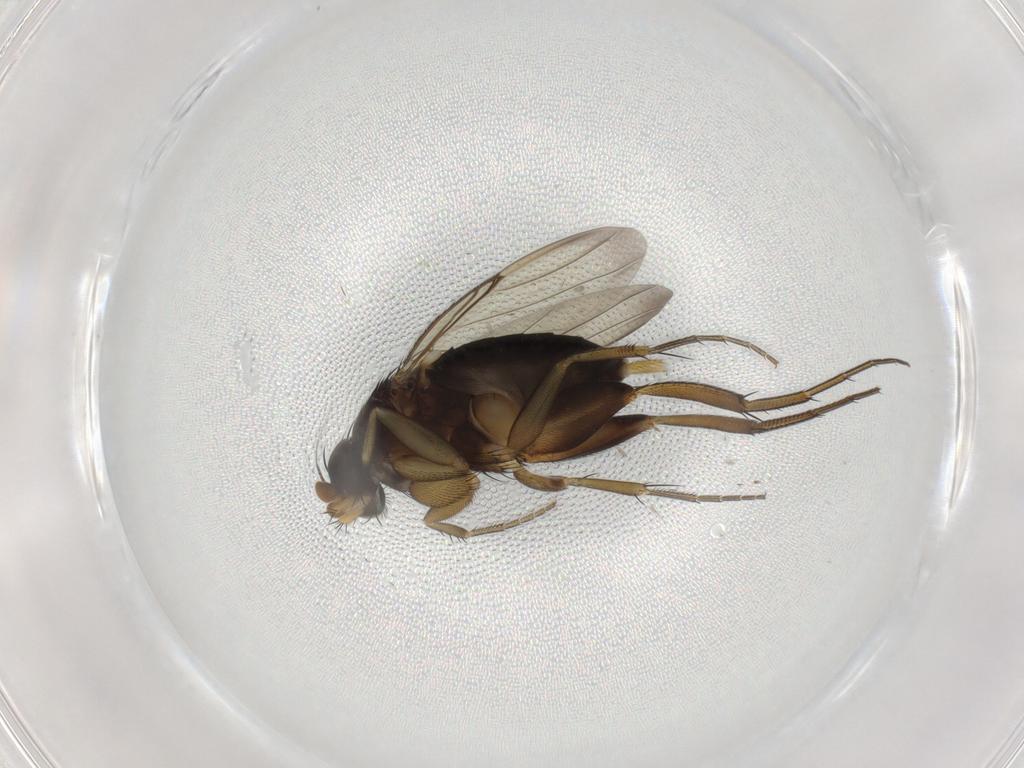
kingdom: Animalia
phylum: Arthropoda
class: Insecta
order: Diptera
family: Phoridae
